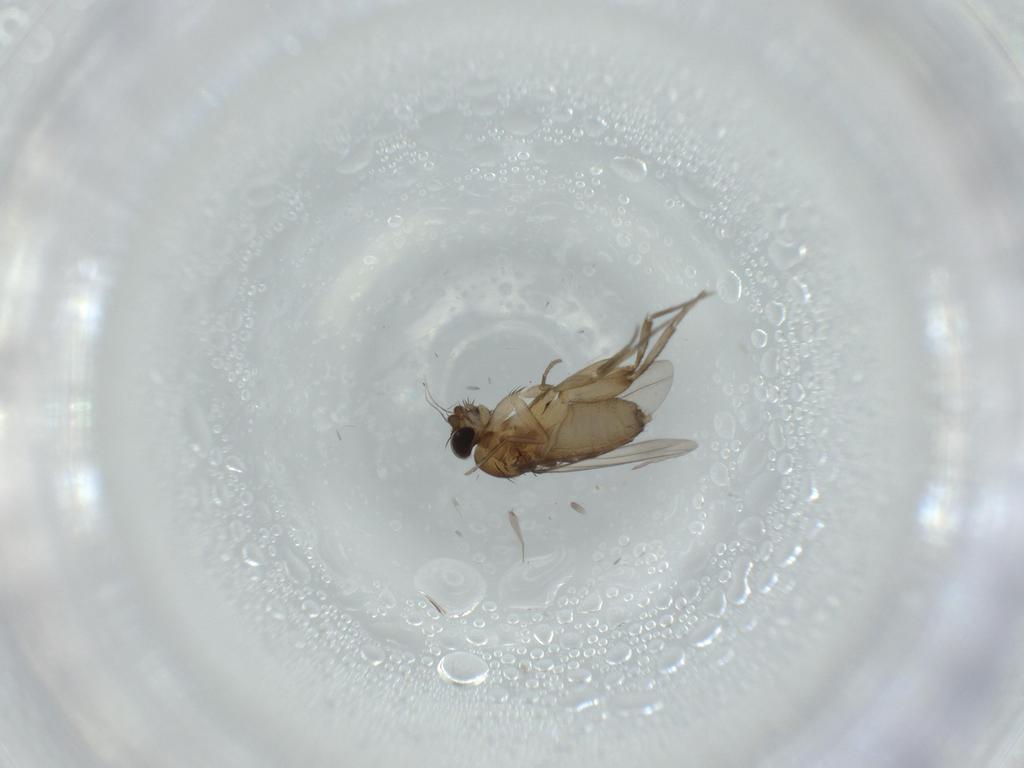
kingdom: Animalia
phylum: Arthropoda
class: Insecta
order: Diptera
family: Phoridae
